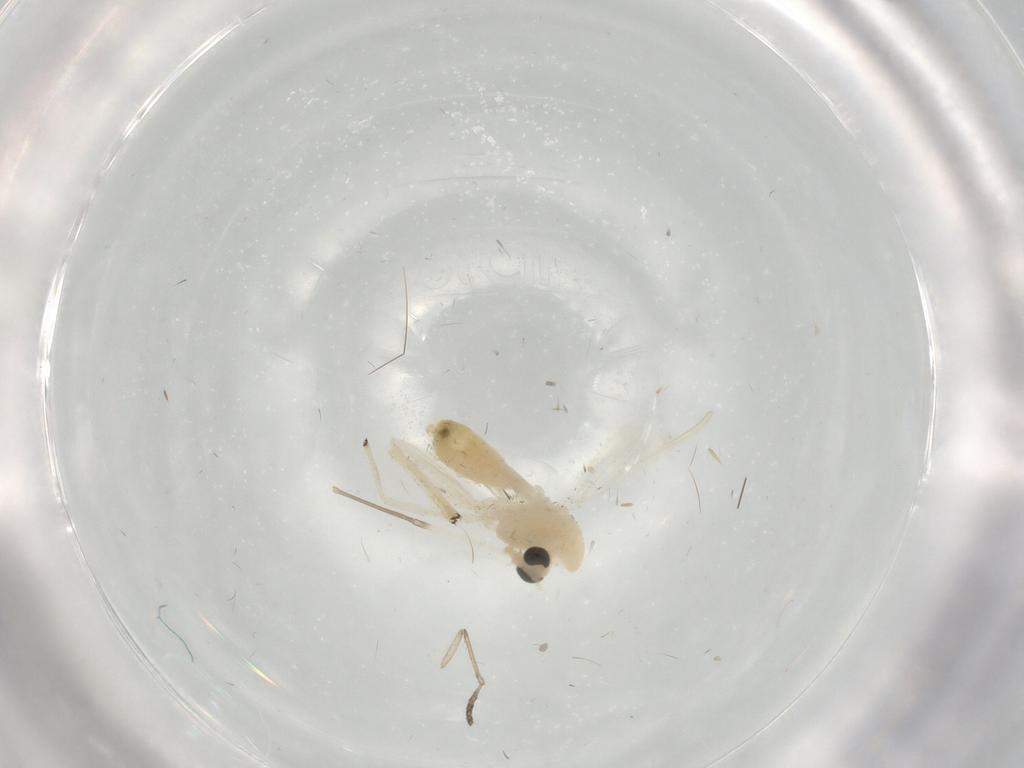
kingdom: Animalia
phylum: Arthropoda
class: Insecta
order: Diptera
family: Chironomidae
